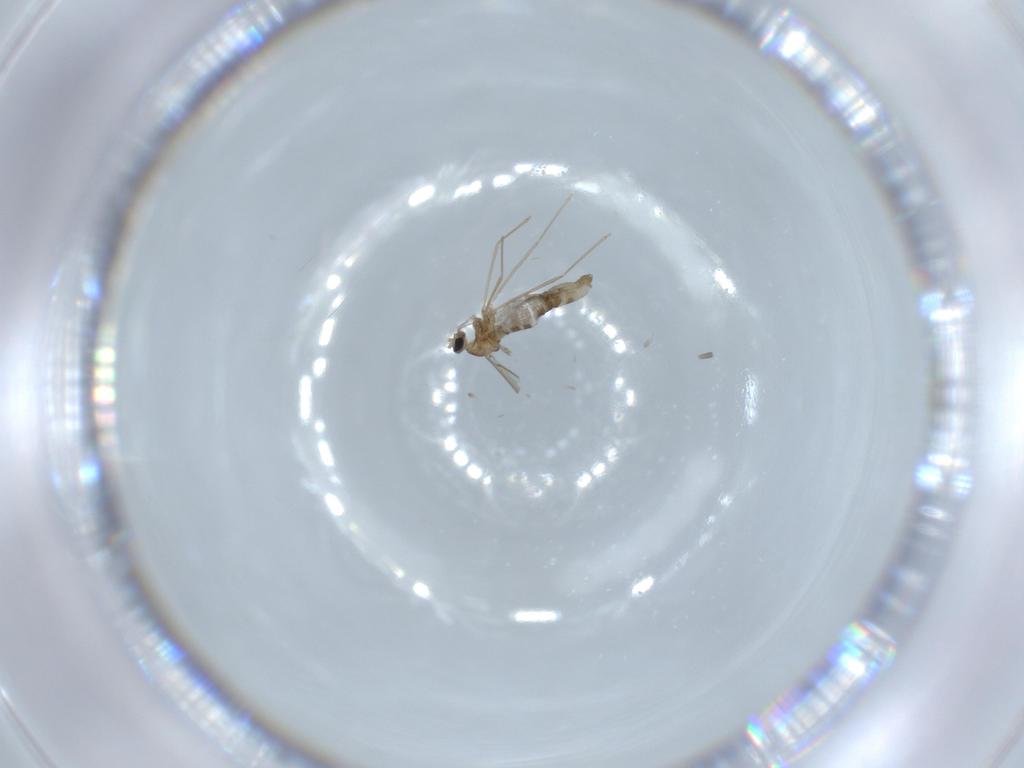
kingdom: Animalia
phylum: Arthropoda
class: Insecta
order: Diptera
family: Cecidomyiidae
